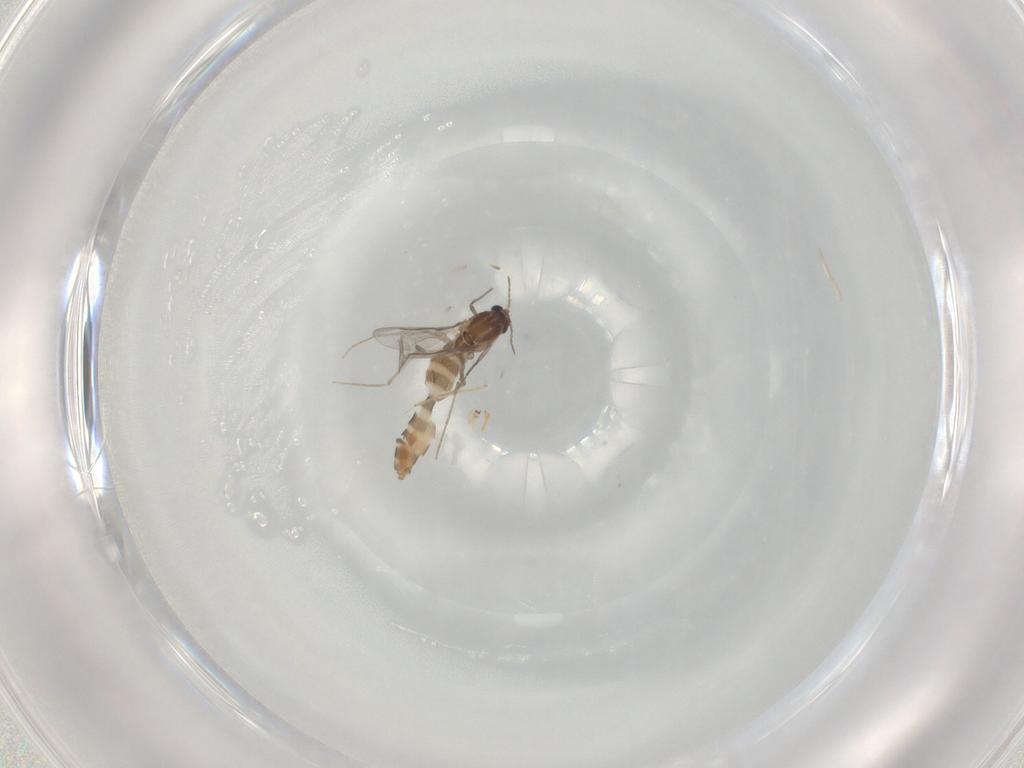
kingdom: Animalia
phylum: Arthropoda
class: Insecta
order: Diptera
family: Chironomidae
